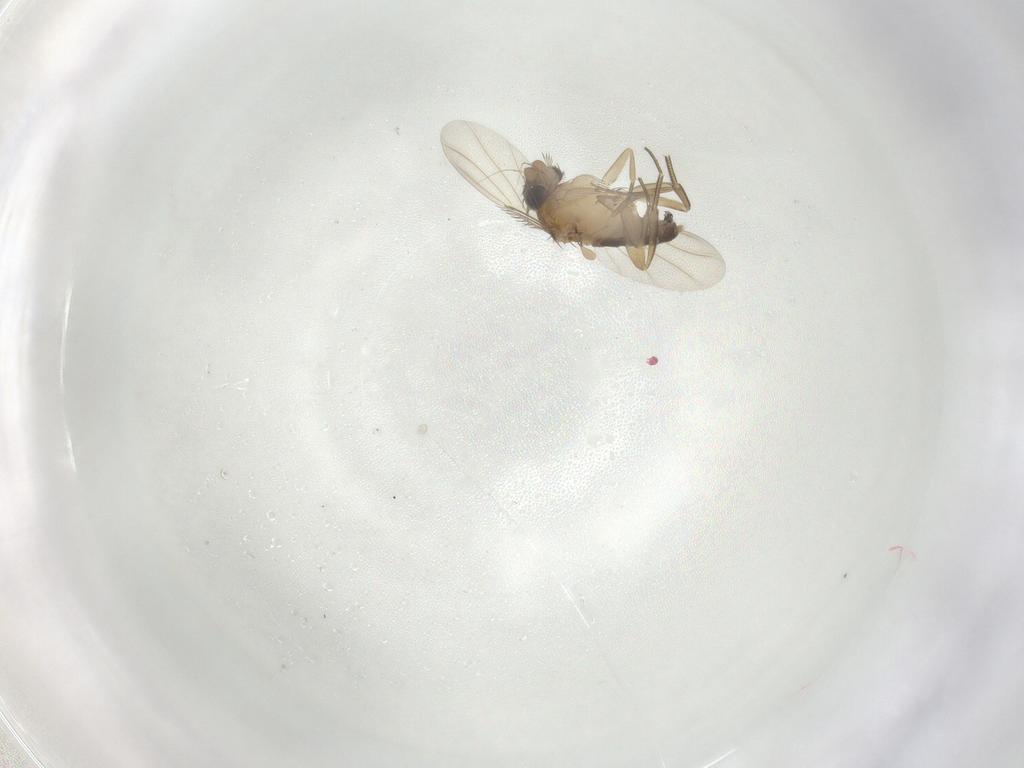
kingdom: Animalia
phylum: Arthropoda
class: Insecta
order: Diptera
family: Phoridae
